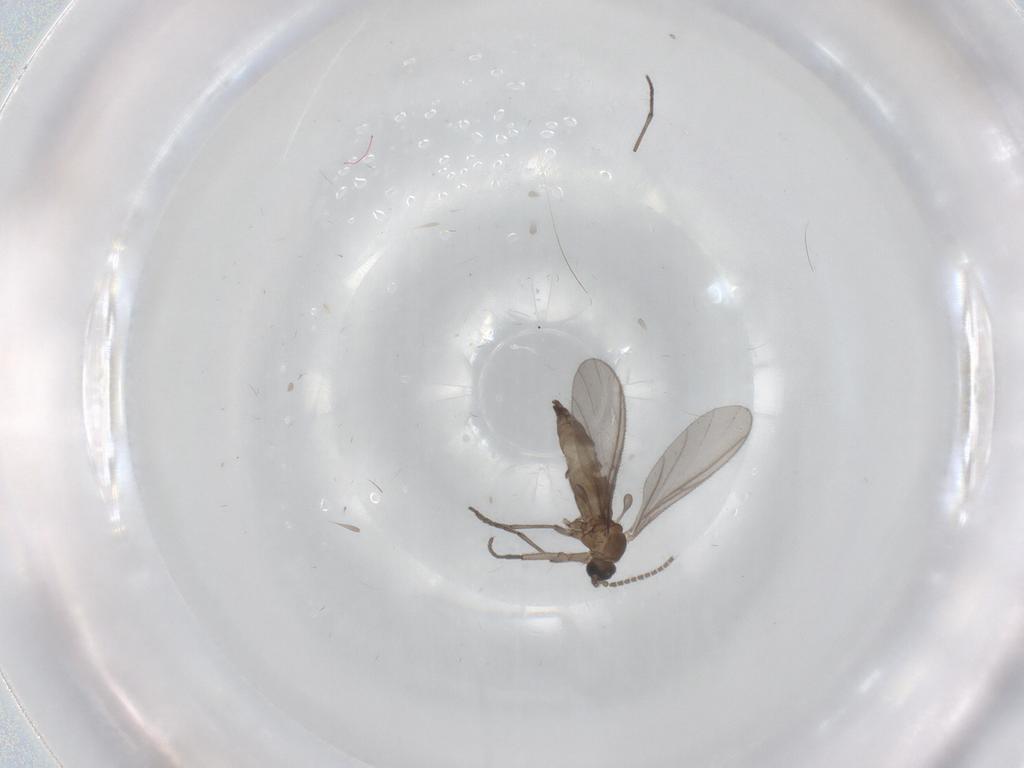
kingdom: Animalia
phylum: Arthropoda
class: Insecta
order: Diptera
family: Sciaridae
